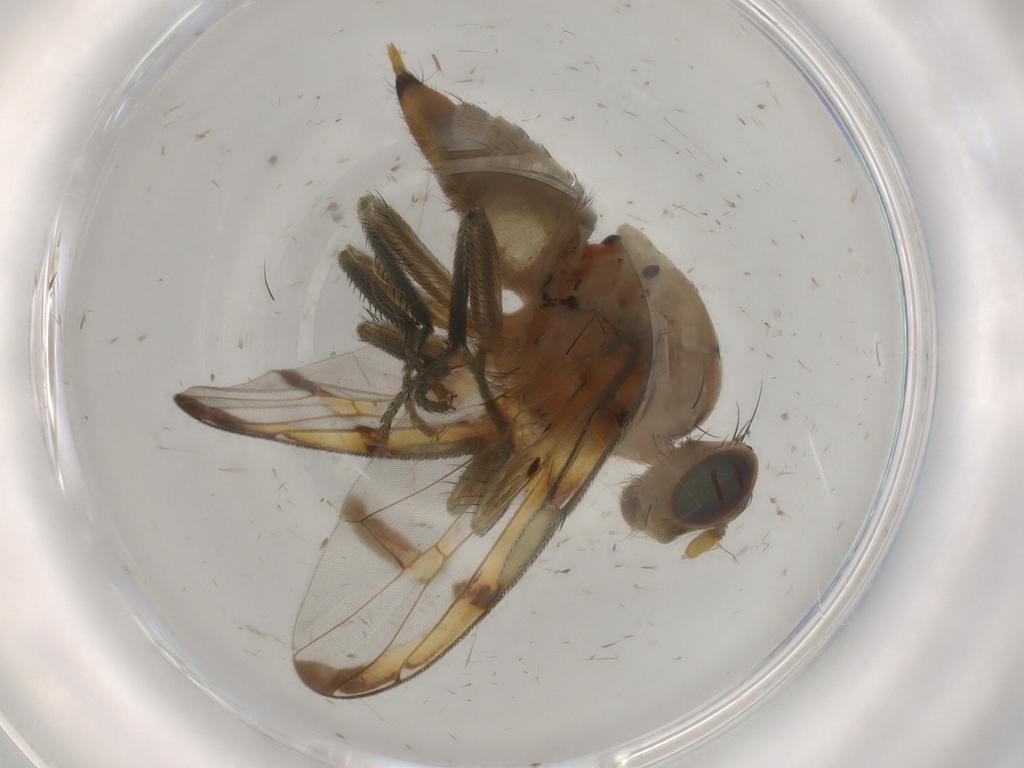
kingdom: Animalia
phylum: Arthropoda
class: Insecta
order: Diptera
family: Tephritidae
